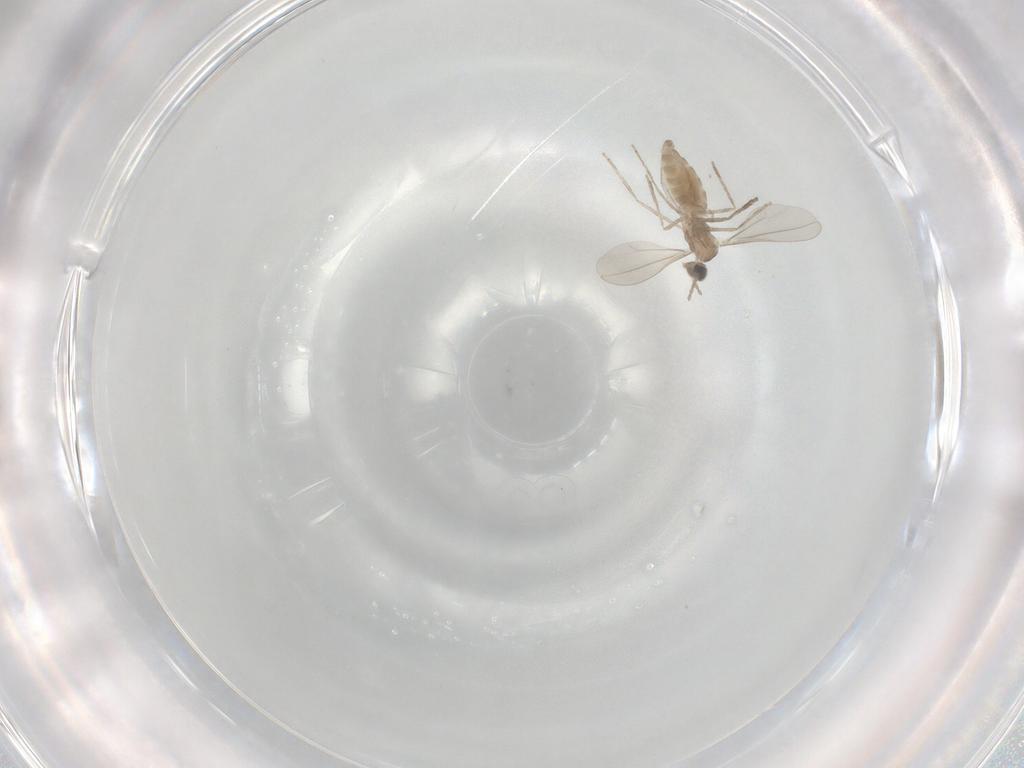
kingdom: Animalia
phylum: Arthropoda
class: Insecta
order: Diptera
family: Cecidomyiidae
